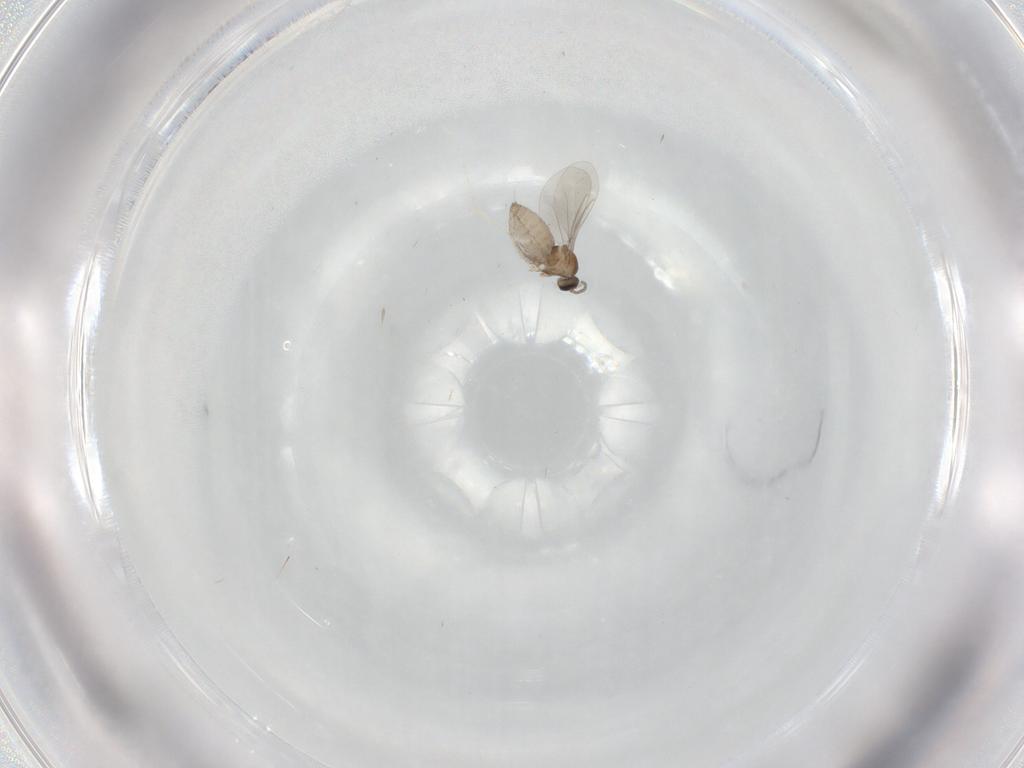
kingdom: Animalia
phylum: Arthropoda
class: Insecta
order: Diptera
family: Cecidomyiidae
